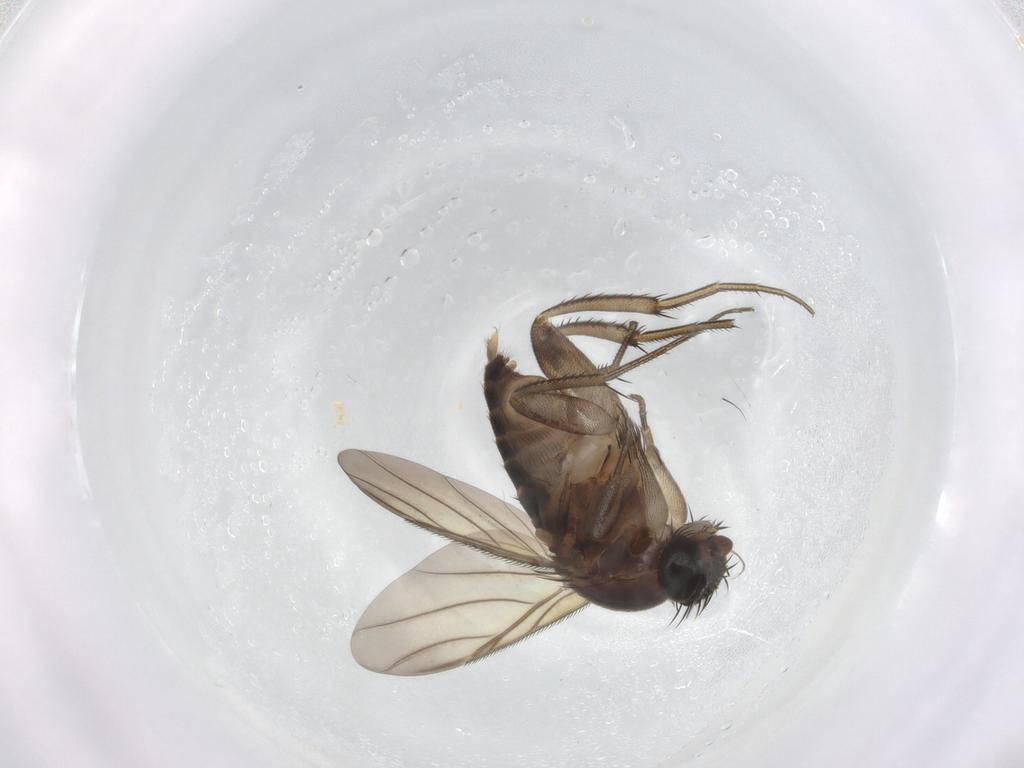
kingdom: Animalia
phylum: Arthropoda
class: Insecta
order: Diptera
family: Phoridae
